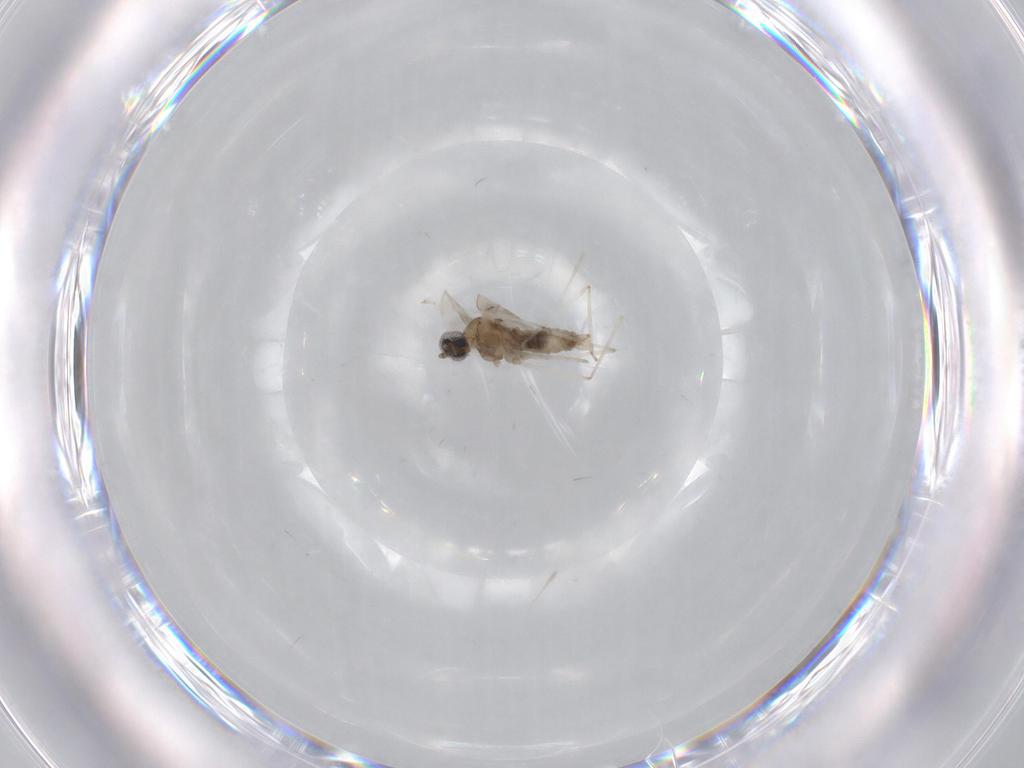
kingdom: Animalia
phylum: Arthropoda
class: Insecta
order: Diptera
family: Cecidomyiidae
